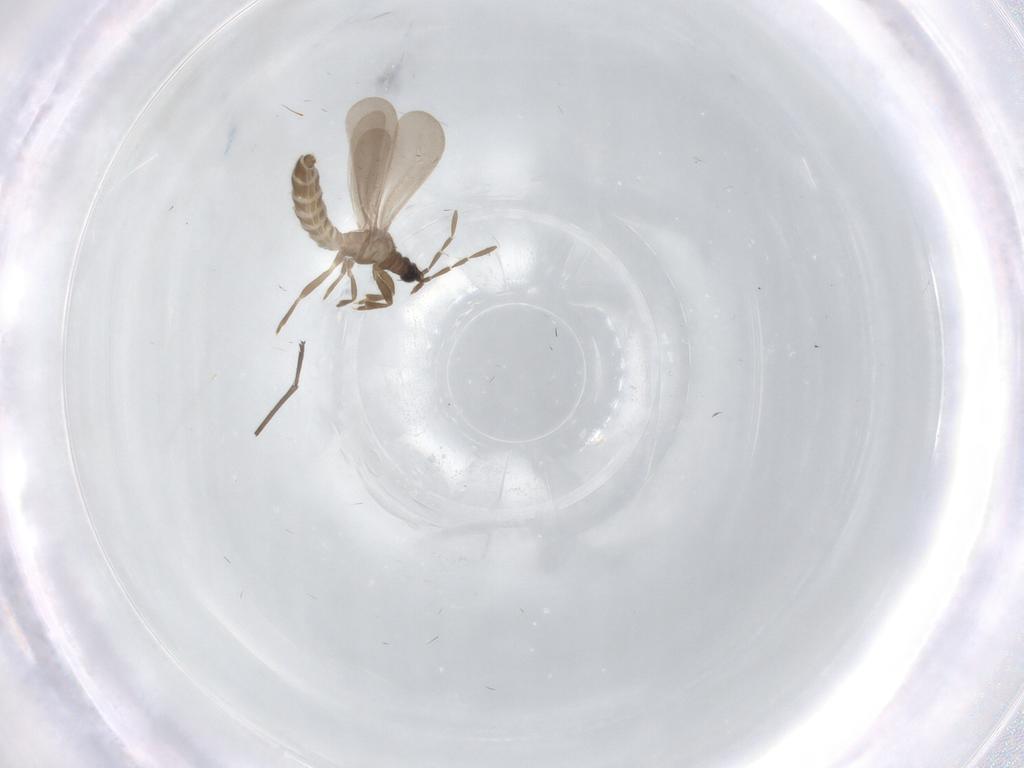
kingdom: Animalia
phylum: Arthropoda
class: Insecta
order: Hemiptera
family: Enicocephalidae
